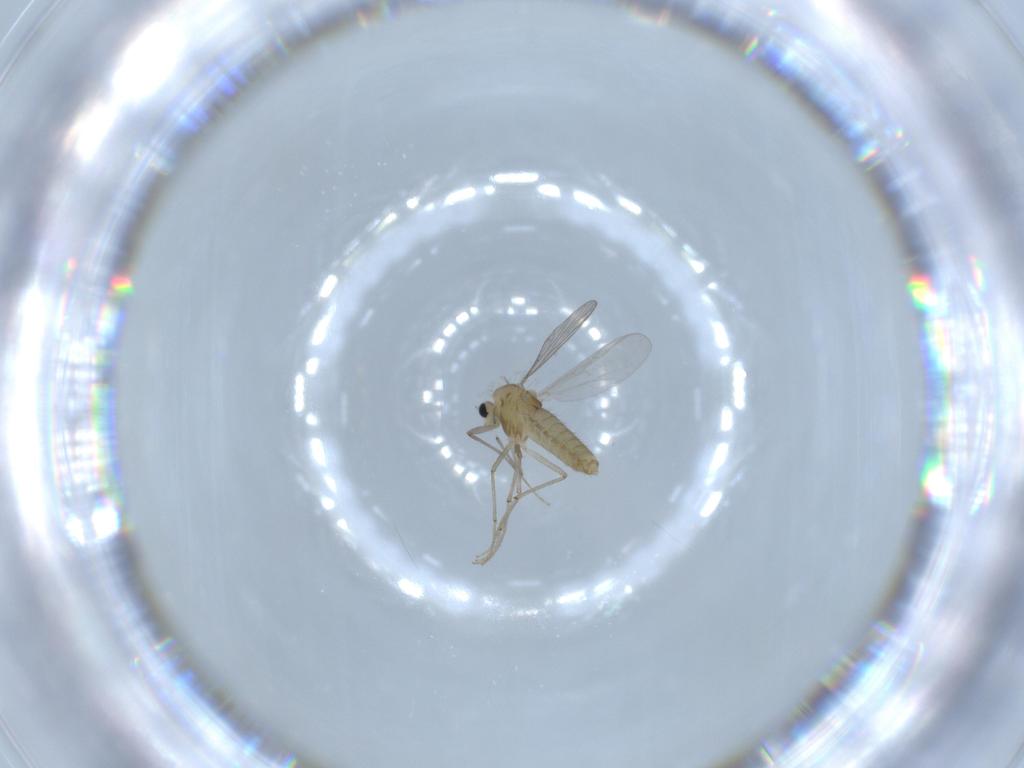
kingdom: Animalia
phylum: Arthropoda
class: Insecta
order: Diptera
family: Chironomidae
